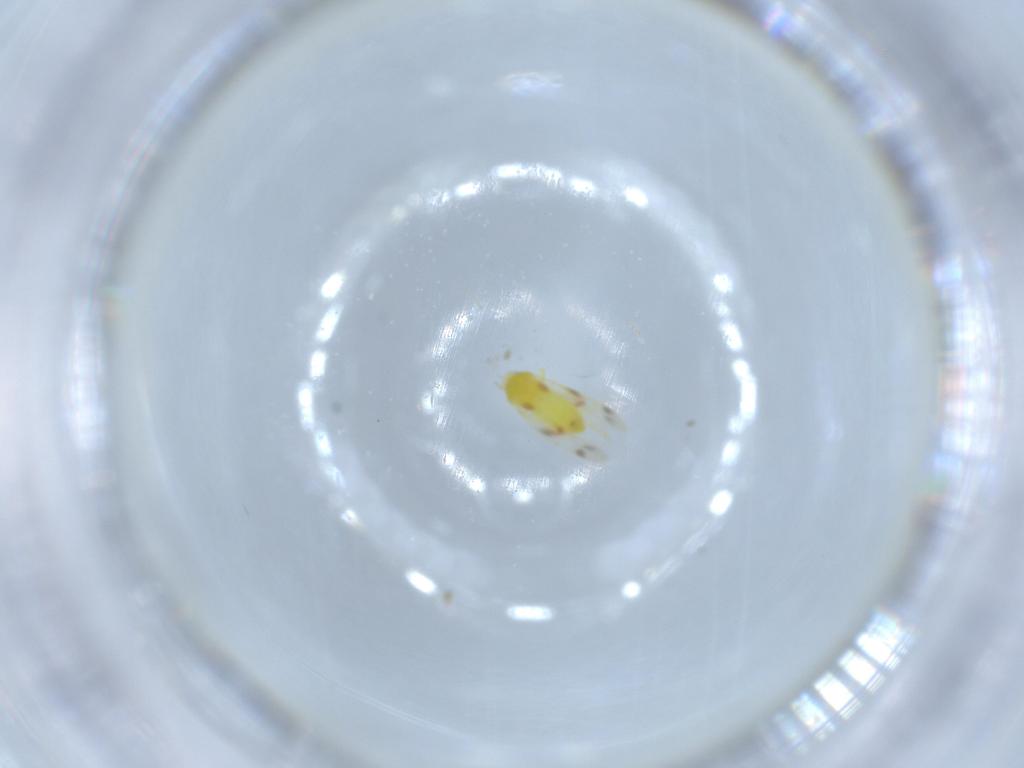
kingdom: Animalia
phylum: Arthropoda
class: Insecta
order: Hemiptera
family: Aleyrodidae
